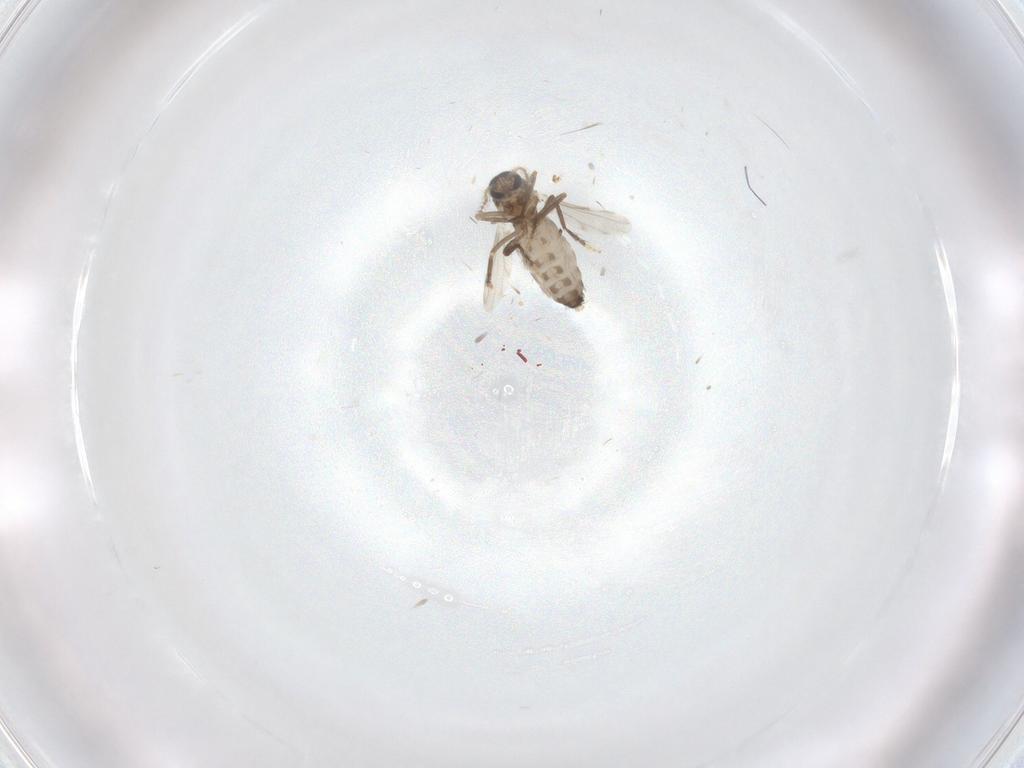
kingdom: Animalia
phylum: Arthropoda
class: Insecta
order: Diptera
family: Ceratopogonidae
